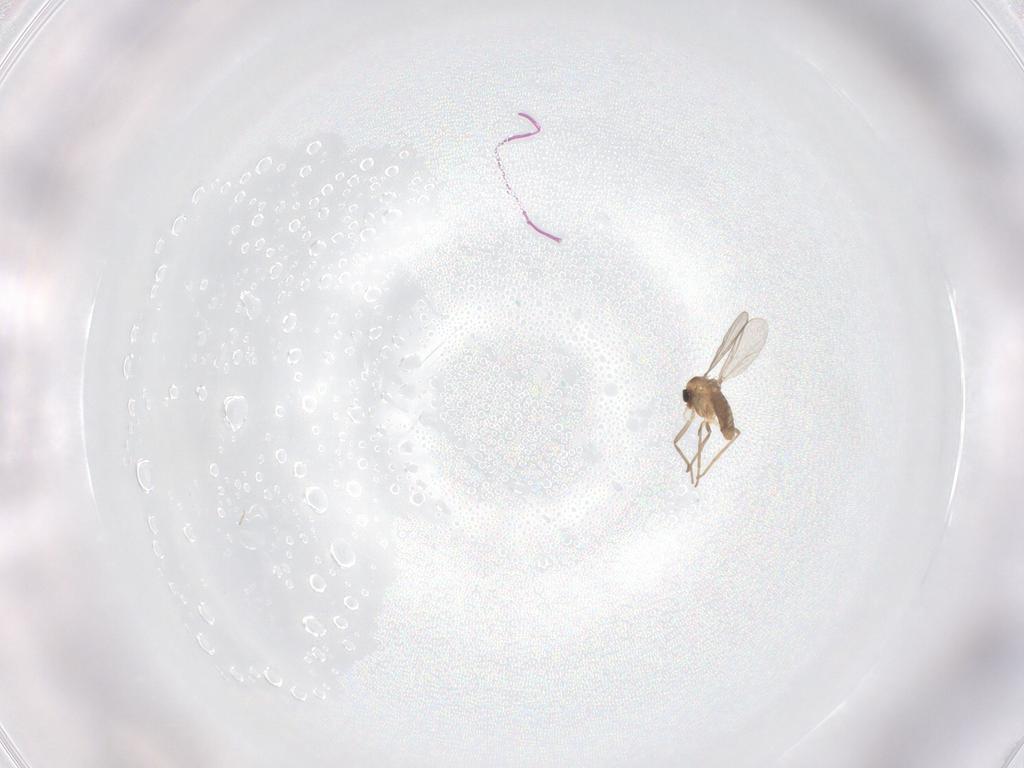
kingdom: Animalia
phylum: Arthropoda
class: Insecta
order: Diptera
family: Chironomidae
